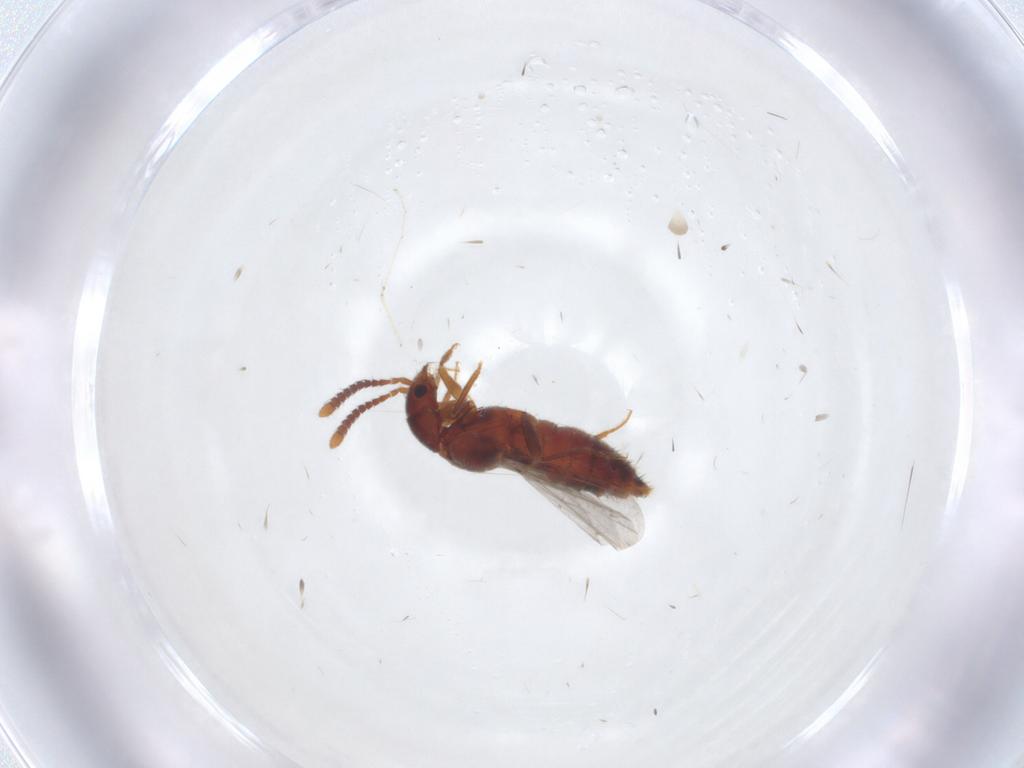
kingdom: Animalia
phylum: Arthropoda
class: Insecta
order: Coleoptera
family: Staphylinidae
